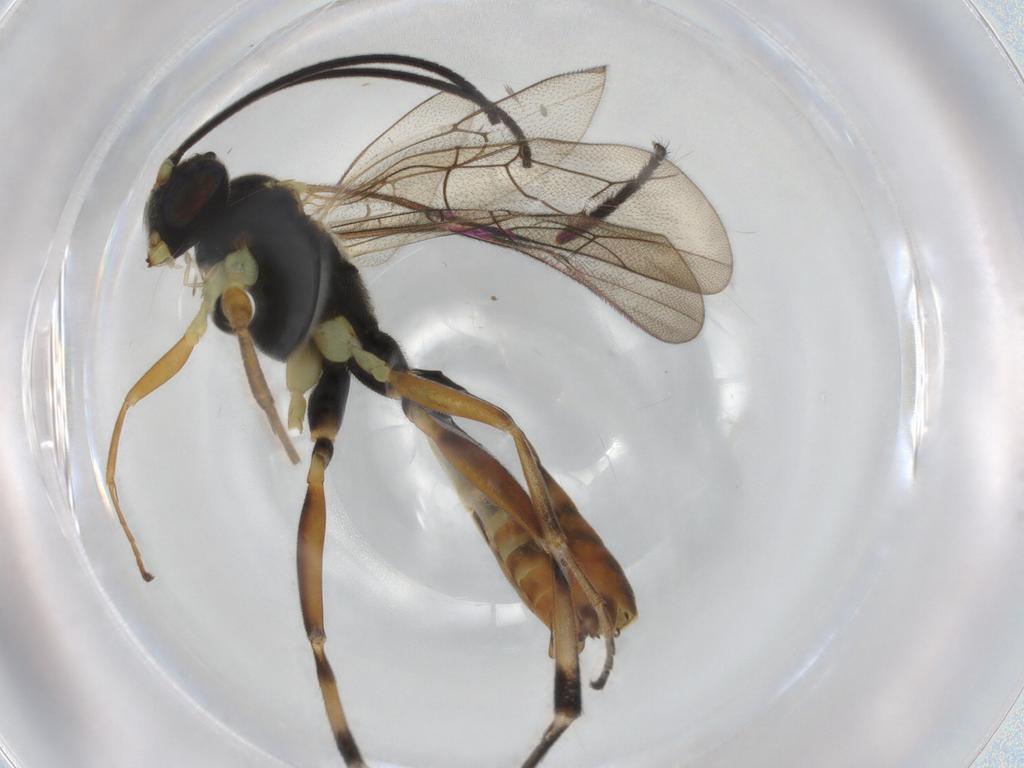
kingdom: Animalia
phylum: Arthropoda
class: Insecta
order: Hymenoptera
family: Ichneumonidae
